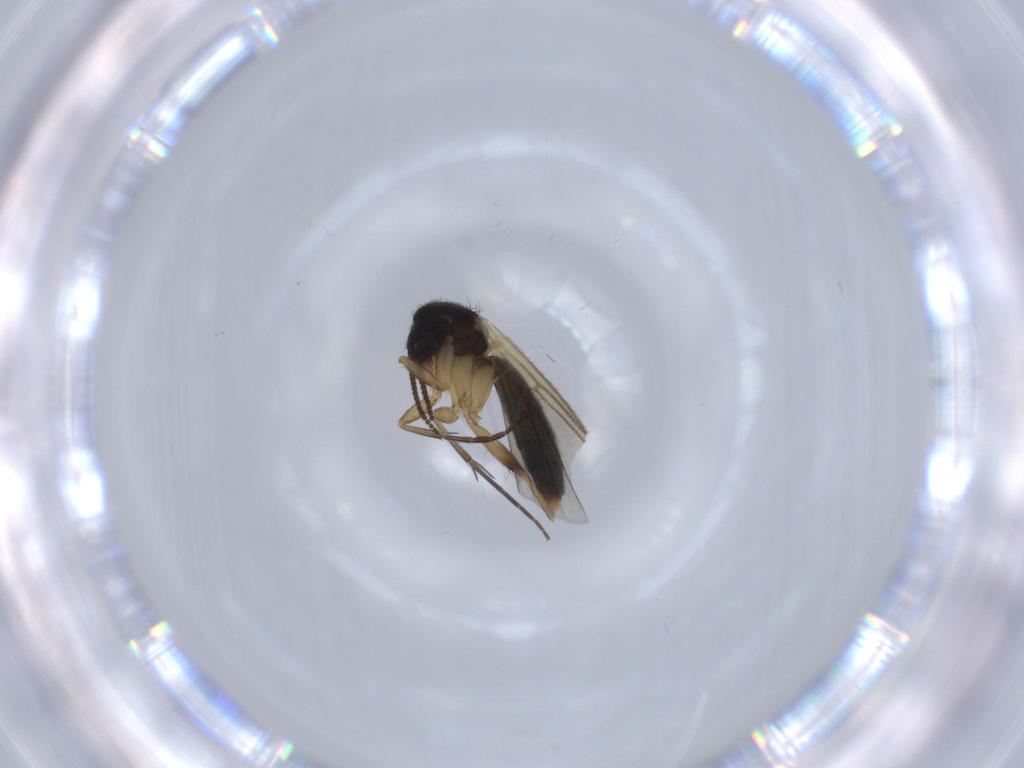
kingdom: Animalia
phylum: Arthropoda
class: Insecta
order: Diptera
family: Mycetophilidae
